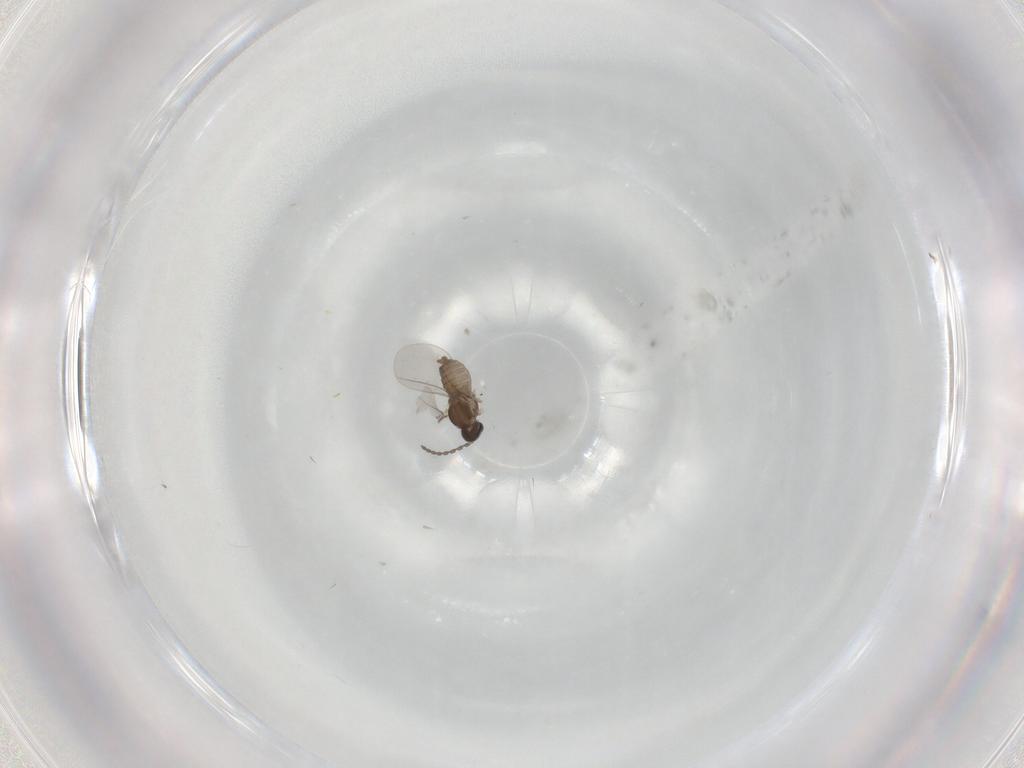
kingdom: Animalia
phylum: Arthropoda
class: Insecta
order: Diptera
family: Cecidomyiidae
